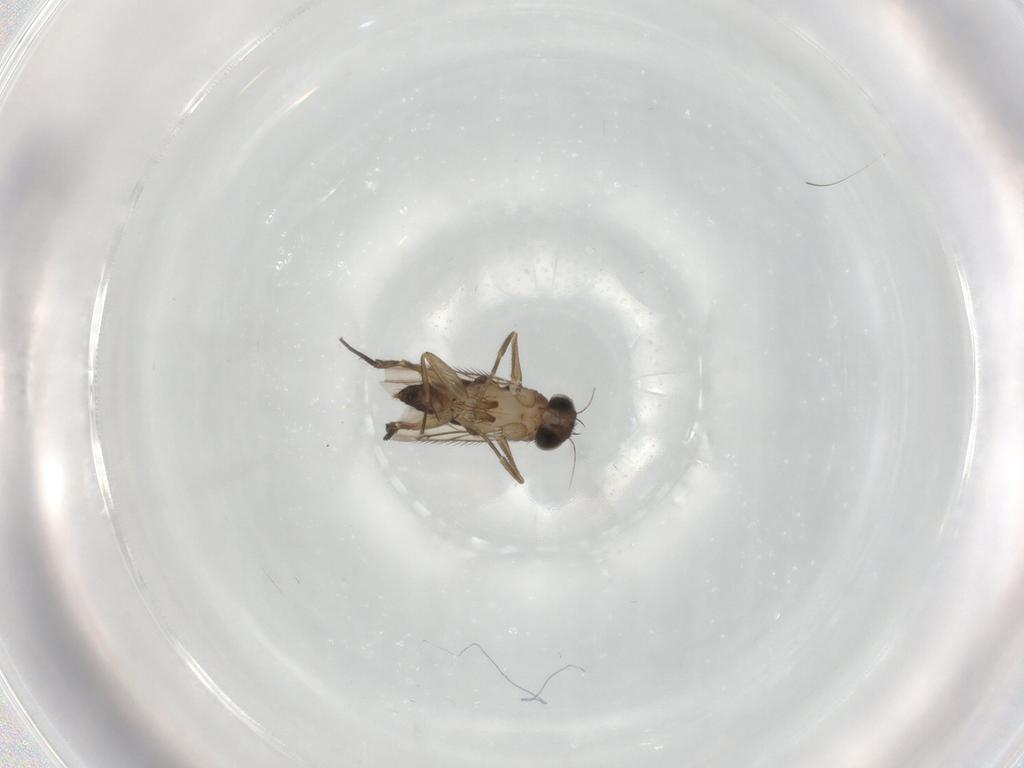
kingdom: Animalia
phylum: Arthropoda
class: Insecta
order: Diptera
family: Phoridae
